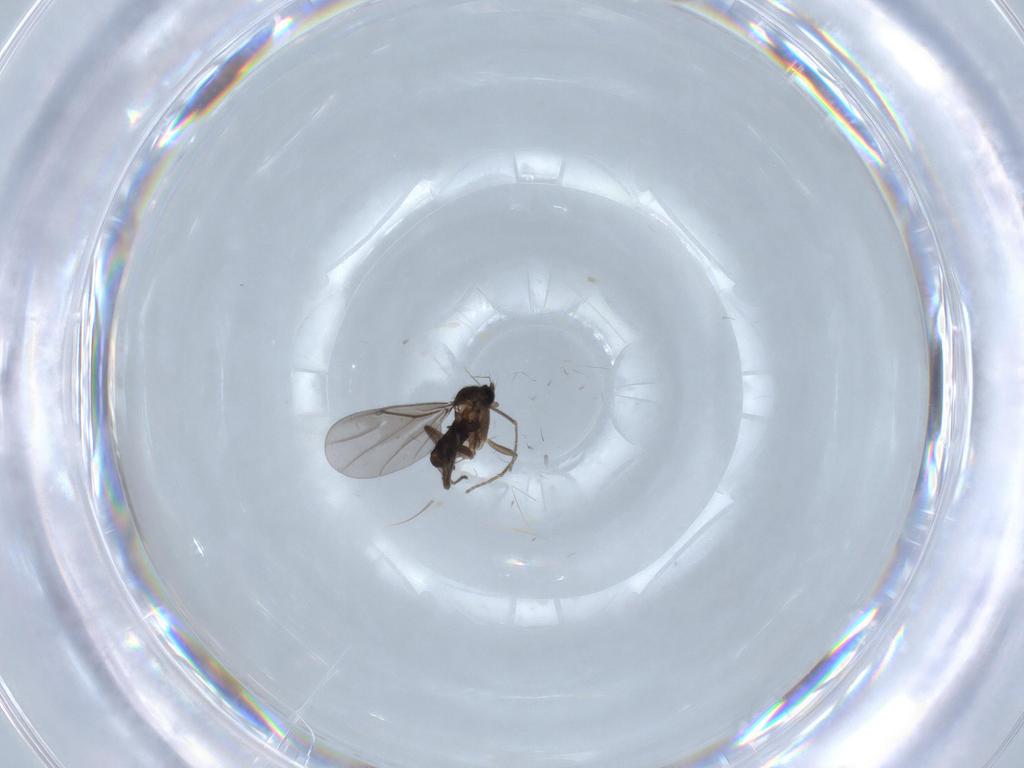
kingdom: Animalia
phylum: Arthropoda
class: Insecta
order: Diptera
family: Phoridae
